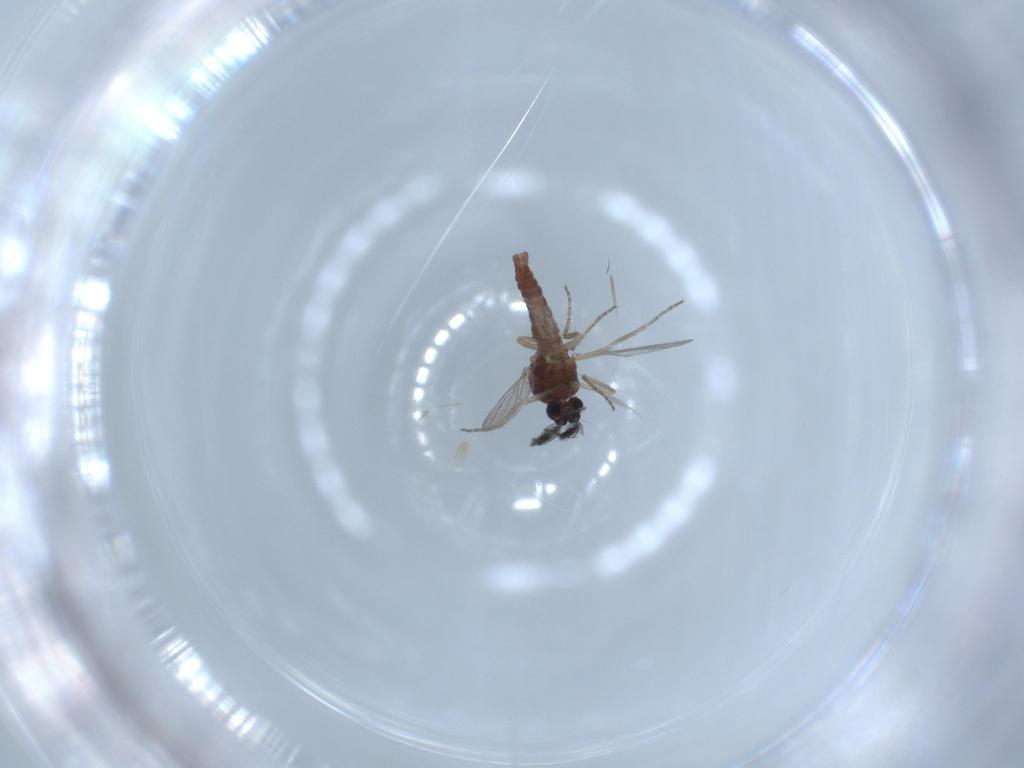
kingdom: Animalia
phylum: Arthropoda
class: Insecta
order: Diptera
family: Ceratopogonidae
